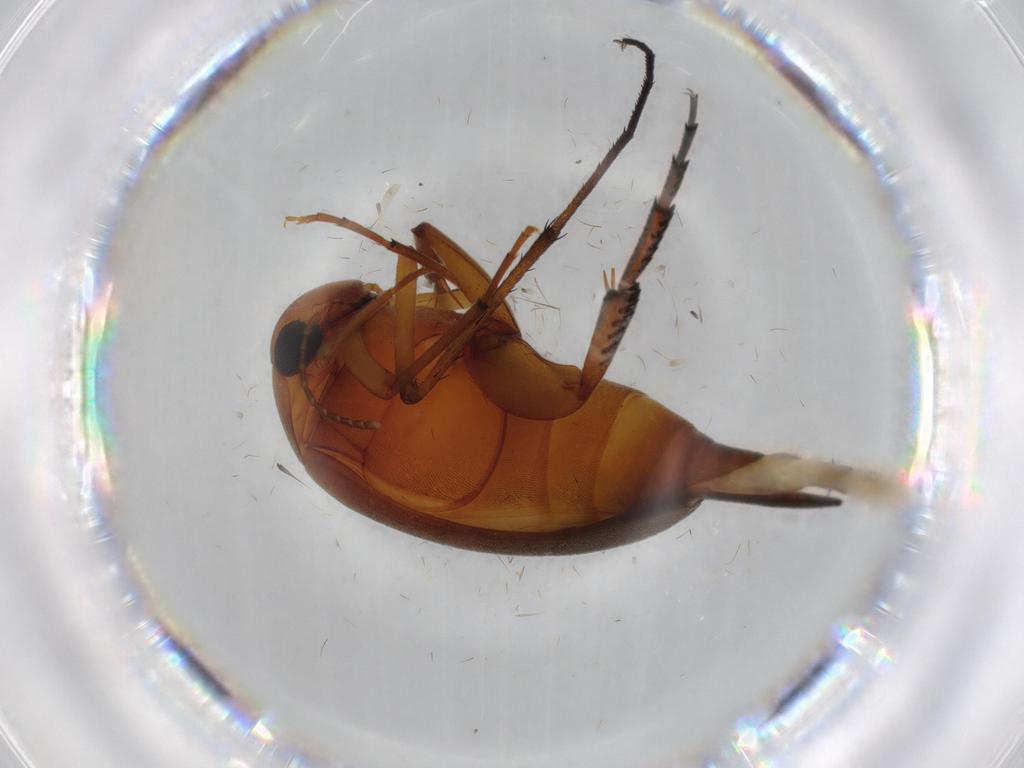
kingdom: Animalia
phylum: Arthropoda
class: Insecta
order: Coleoptera
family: Mordellidae
